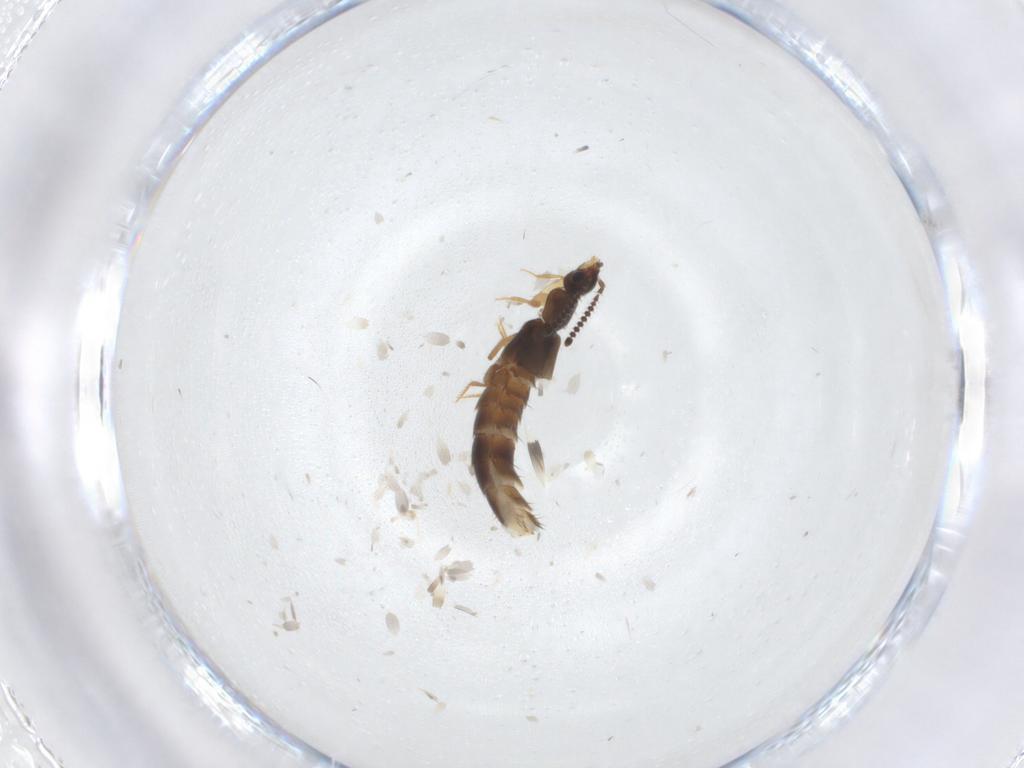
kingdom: Animalia
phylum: Arthropoda
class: Insecta
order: Coleoptera
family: Staphylinidae
